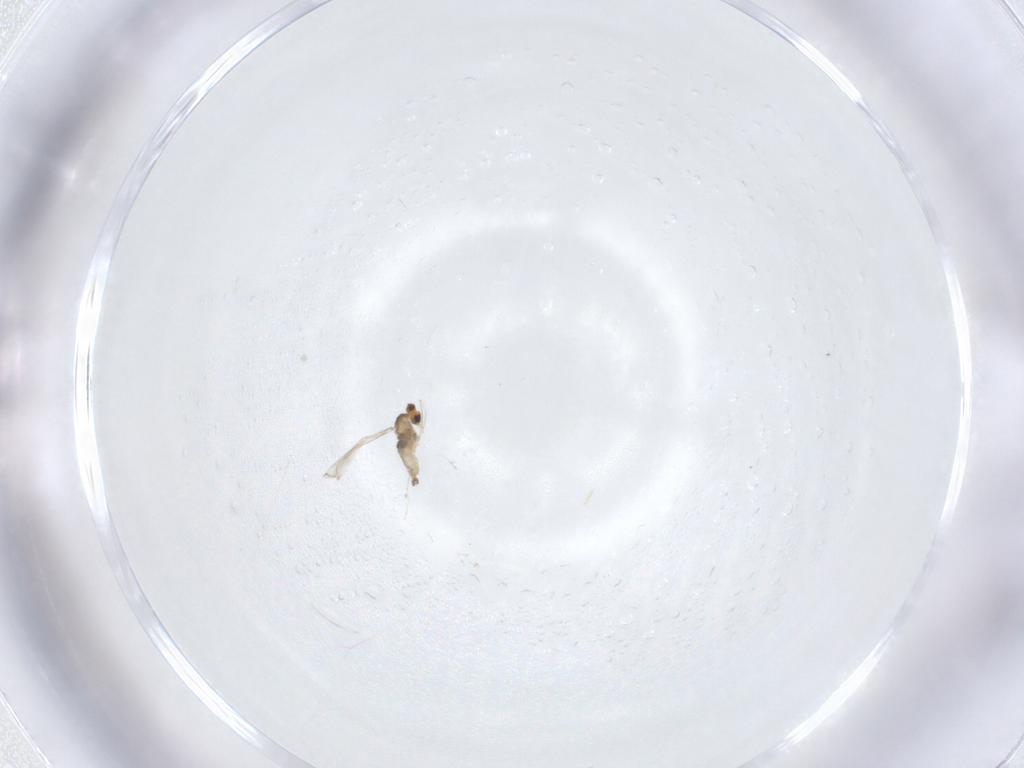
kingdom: Animalia
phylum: Arthropoda
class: Insecta
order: Diptera
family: Cecidomyiidae
